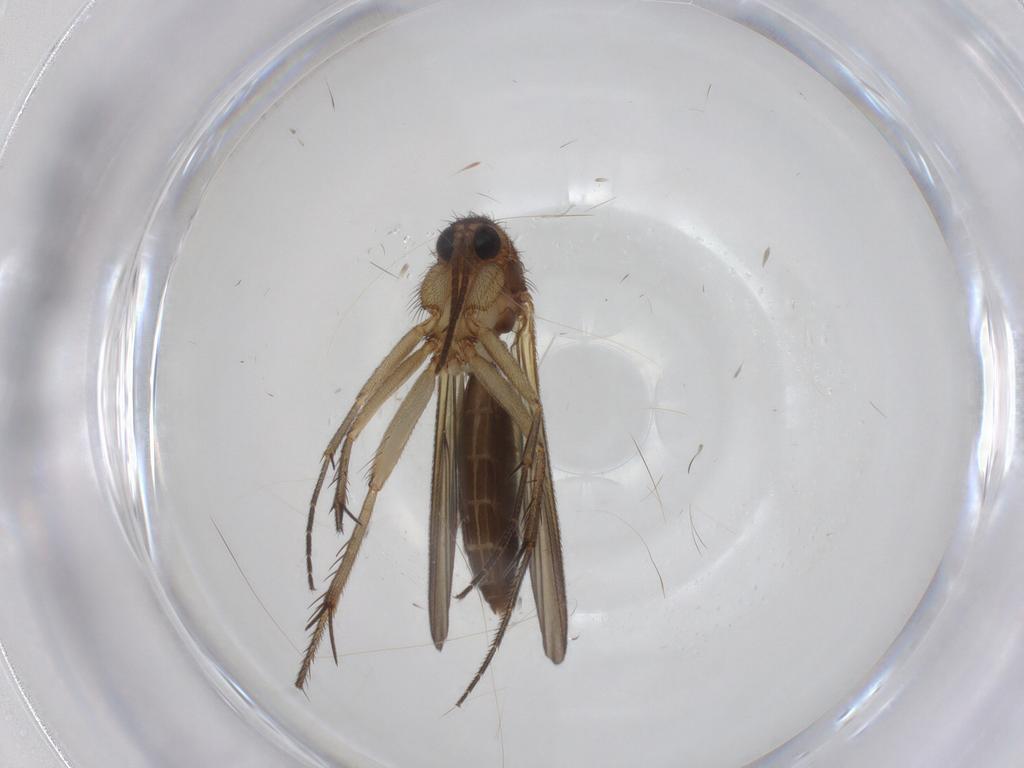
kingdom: Animalia
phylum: Arthropoda
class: Insecta
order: Diptera
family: Mycetophilidae
